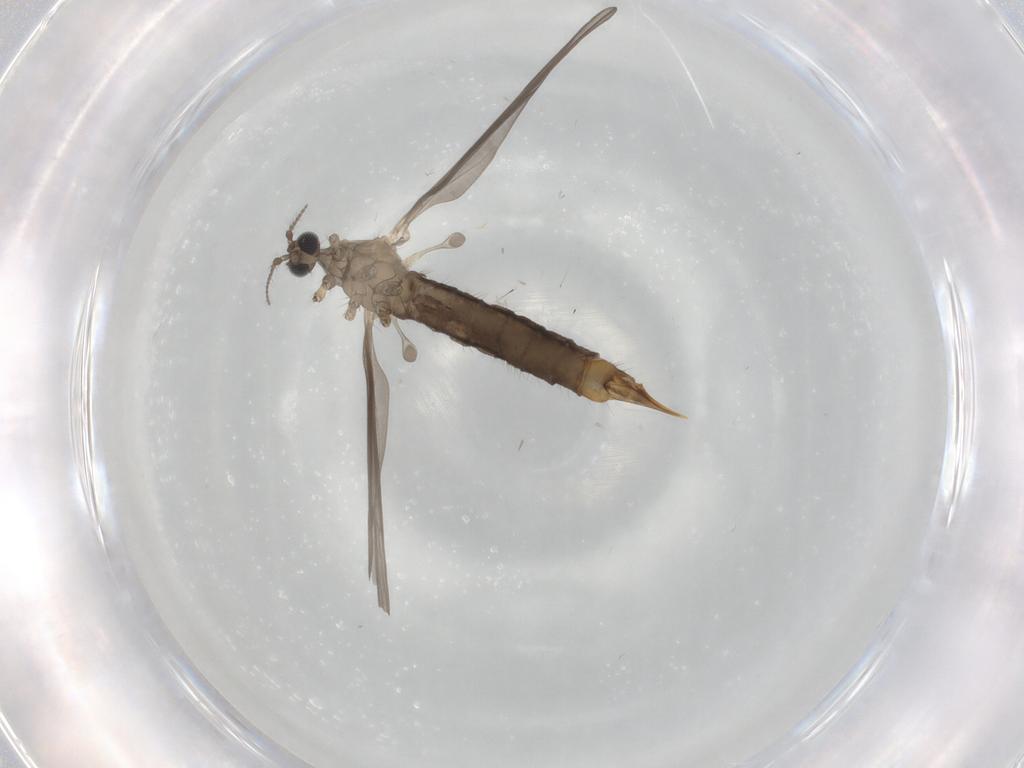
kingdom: Animalia
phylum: Arthropoda
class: Insecta
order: Diptera
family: Limoniidae
